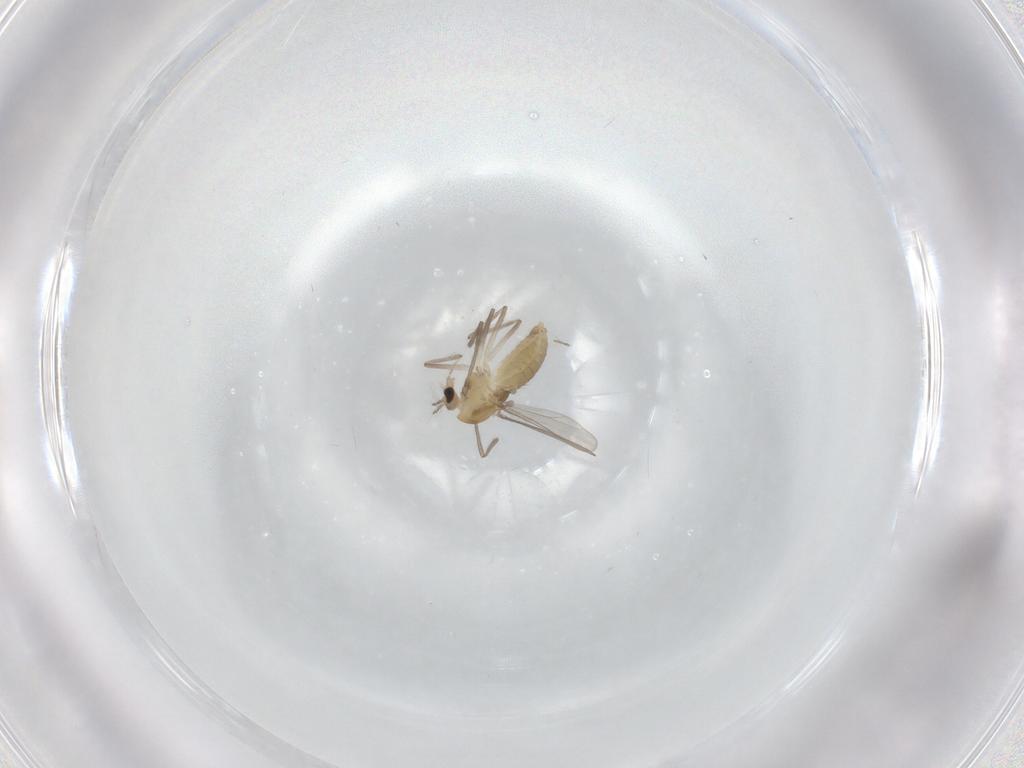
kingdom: Animalia
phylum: Arthropoda
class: Insecta
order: Diptera
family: Chironomidae
